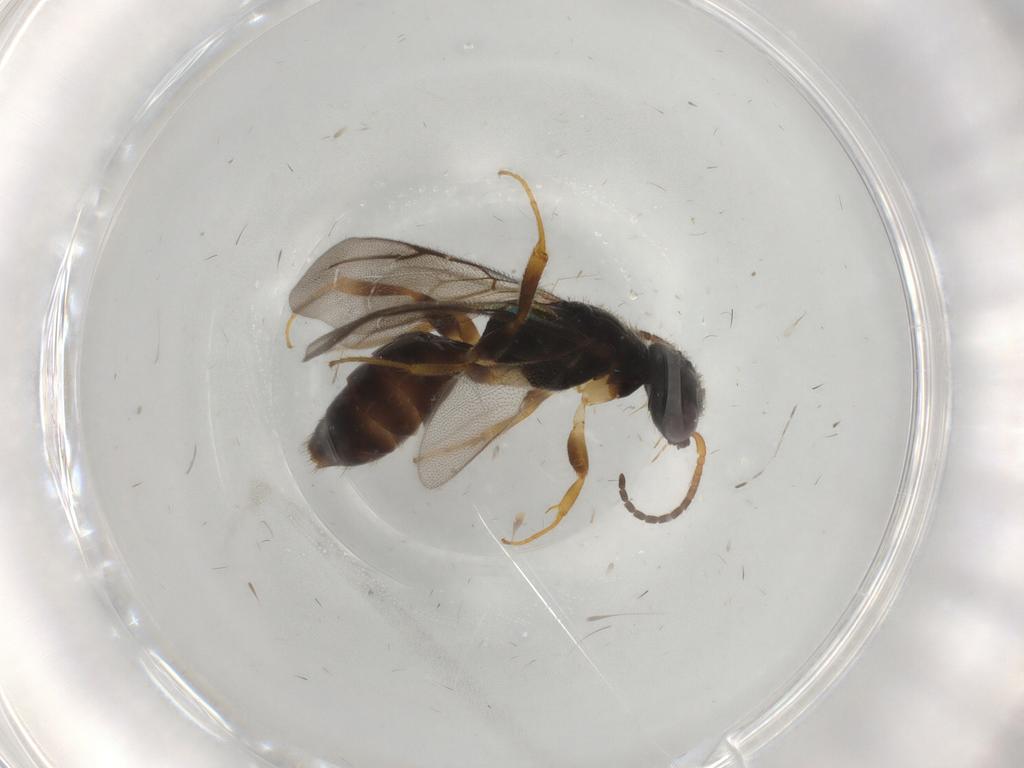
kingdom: Animalia
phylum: Arthropoda
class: Insecta
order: Hymenoptera
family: Bethylidae
